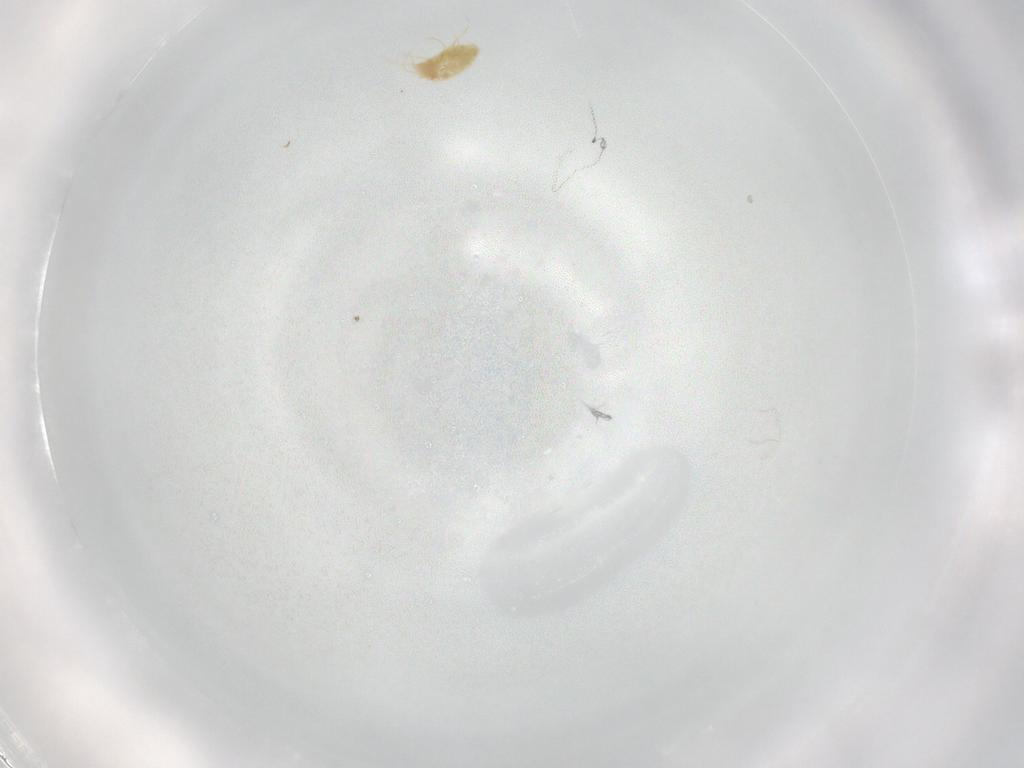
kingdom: Animalia
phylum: Arthropoda
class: Arachnida
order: Trombidiformes
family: Tetranychidae
